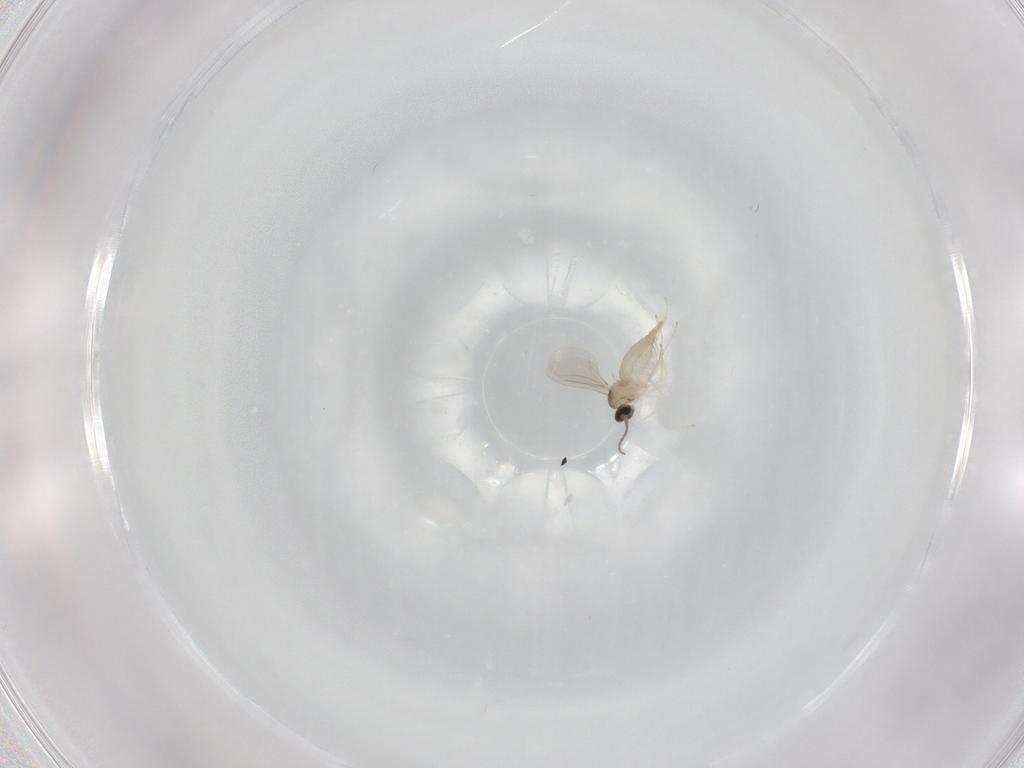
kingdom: Animalia
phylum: Arthropoda
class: Insecta
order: Diptera
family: Cecidomyiidae
